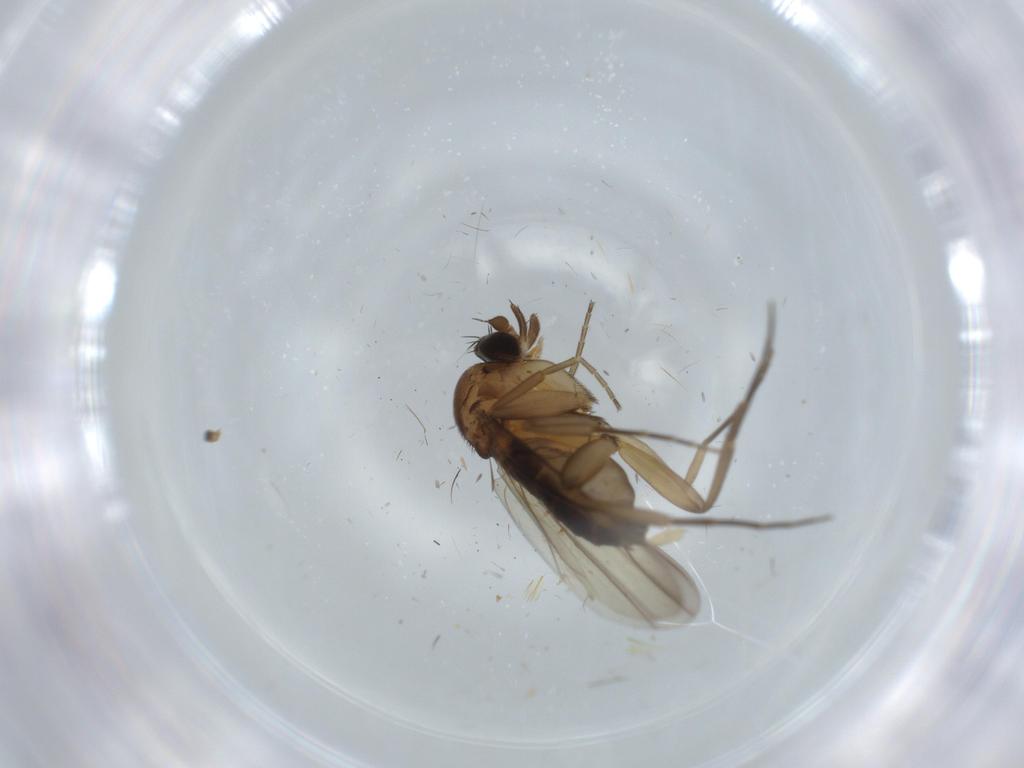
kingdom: Animalia
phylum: Arthropoda
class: Insecta
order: Diptera
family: Phoridae
